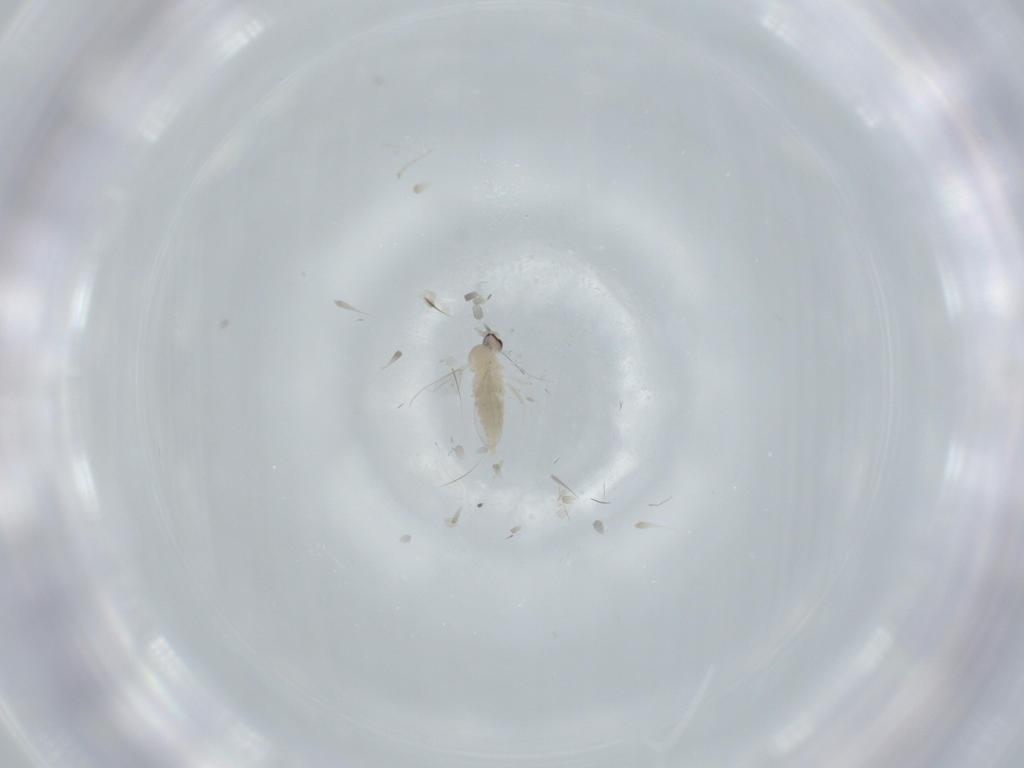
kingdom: Animalia
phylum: Arthropoda
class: Insecta
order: Diptera
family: Cecidomyiidae
